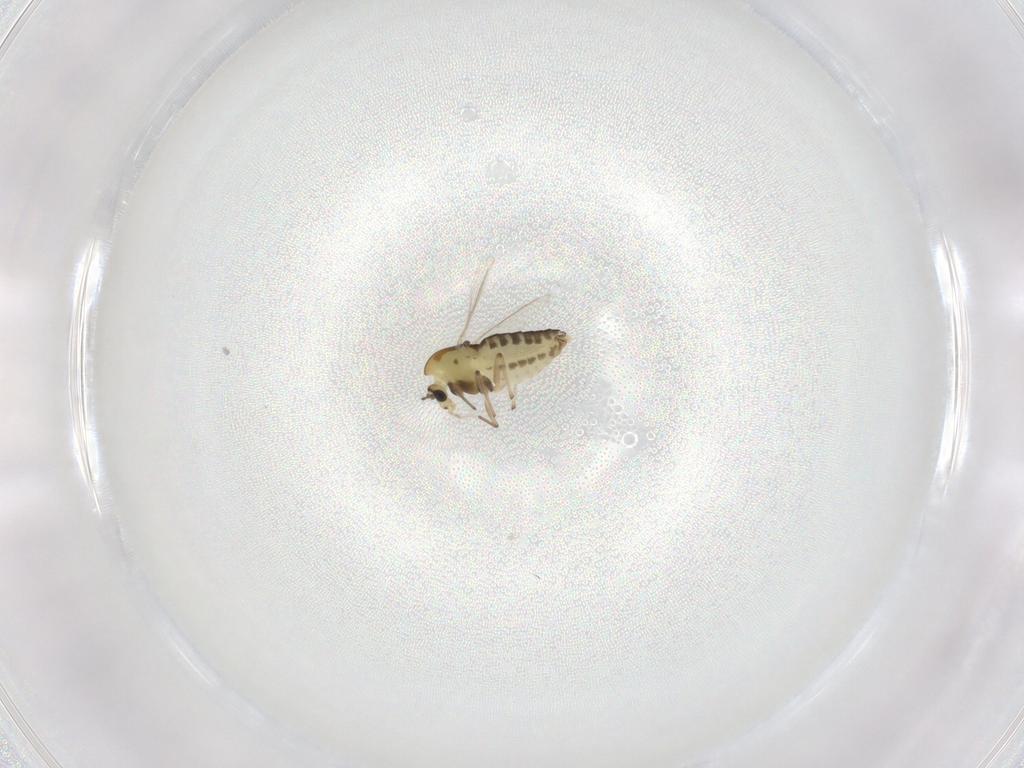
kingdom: Animalia
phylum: Arthropoda
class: Insecta
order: Diptera
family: Chironomidae
